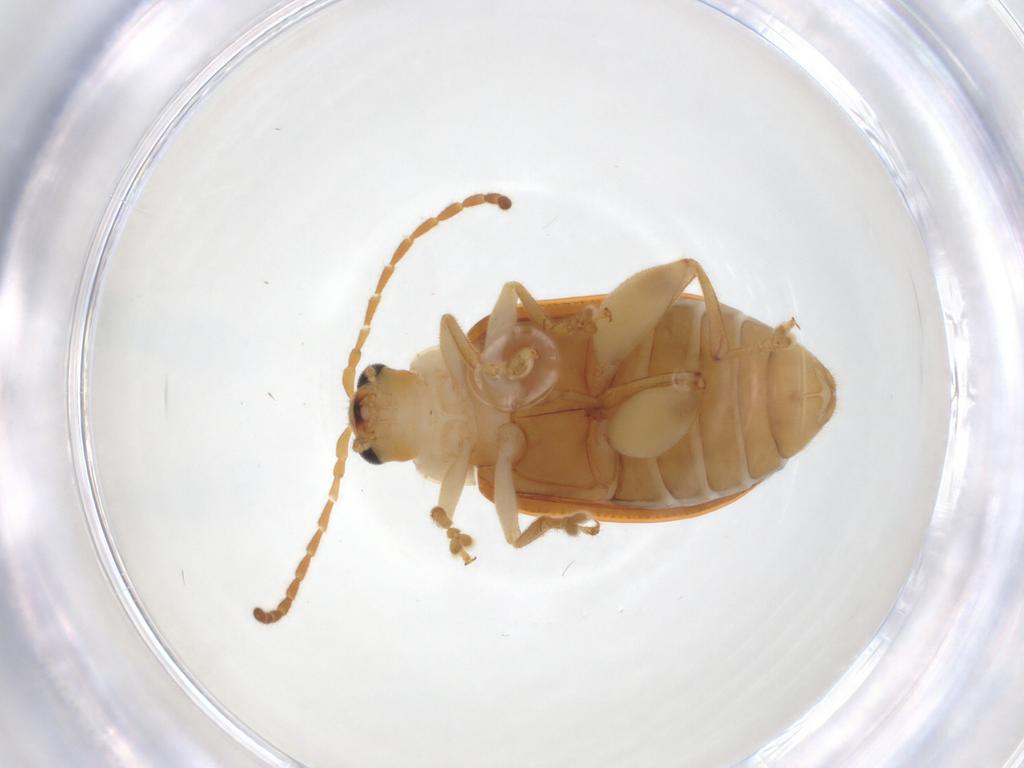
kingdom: Animalia
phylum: Arthropoda
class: Insecta
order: Coleoptera
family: Chrysomelidae
